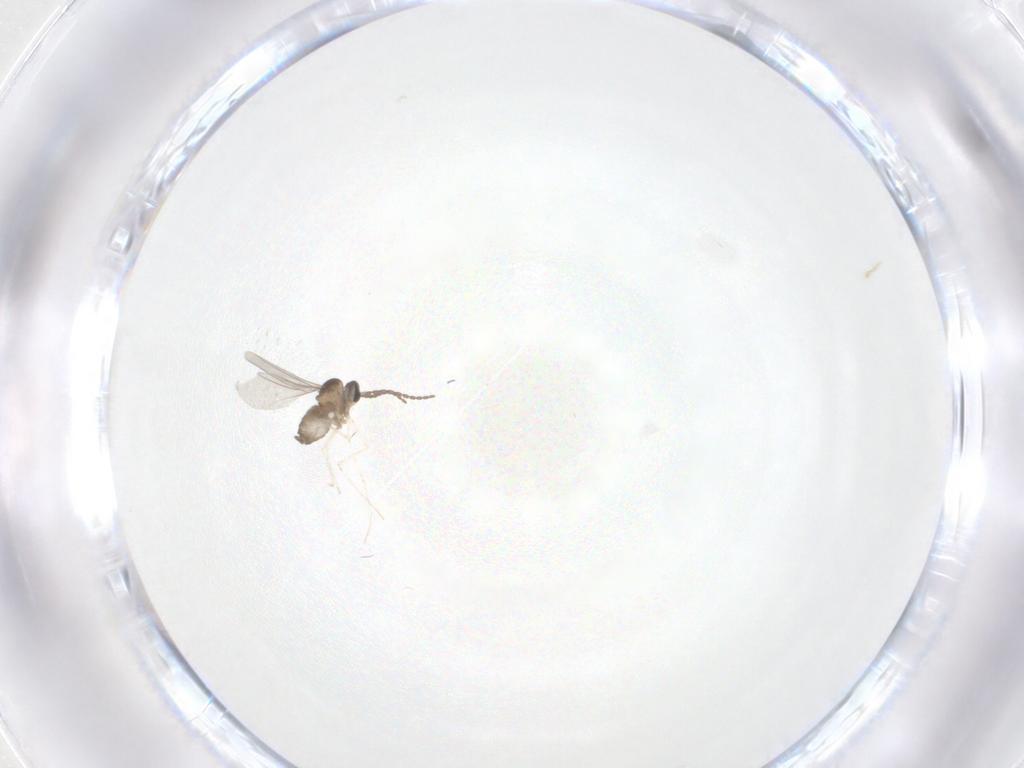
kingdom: Animalia
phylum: Arthropoda
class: Insecta
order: Diptera
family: Cecidomyiidae
